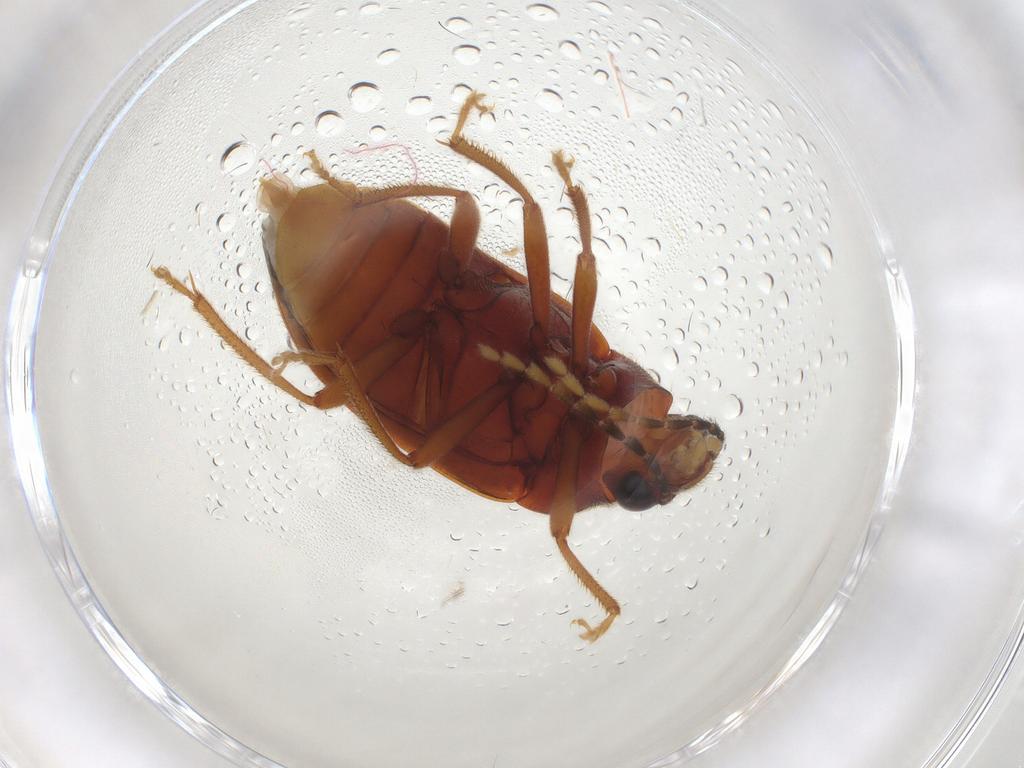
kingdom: Animalia
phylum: Arthropoda
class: Insecta
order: Coleoptera
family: Ptilodactylidae
